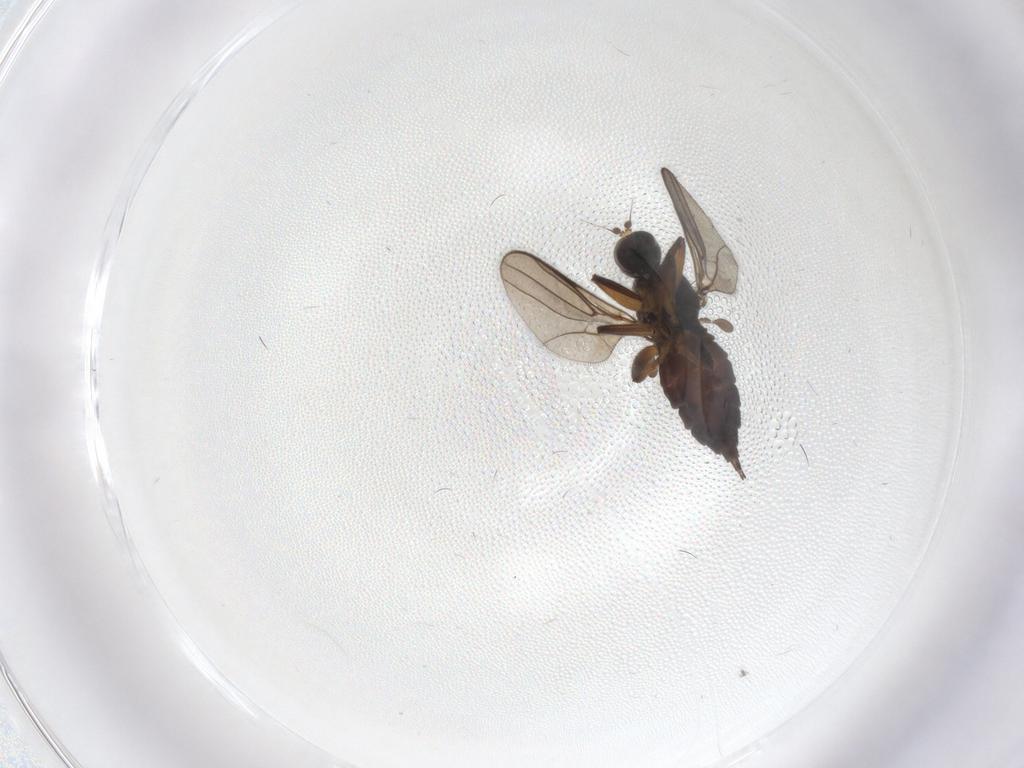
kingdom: Animalia
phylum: Arthropoda
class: Insecta
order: Diptera
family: Hybotidae
